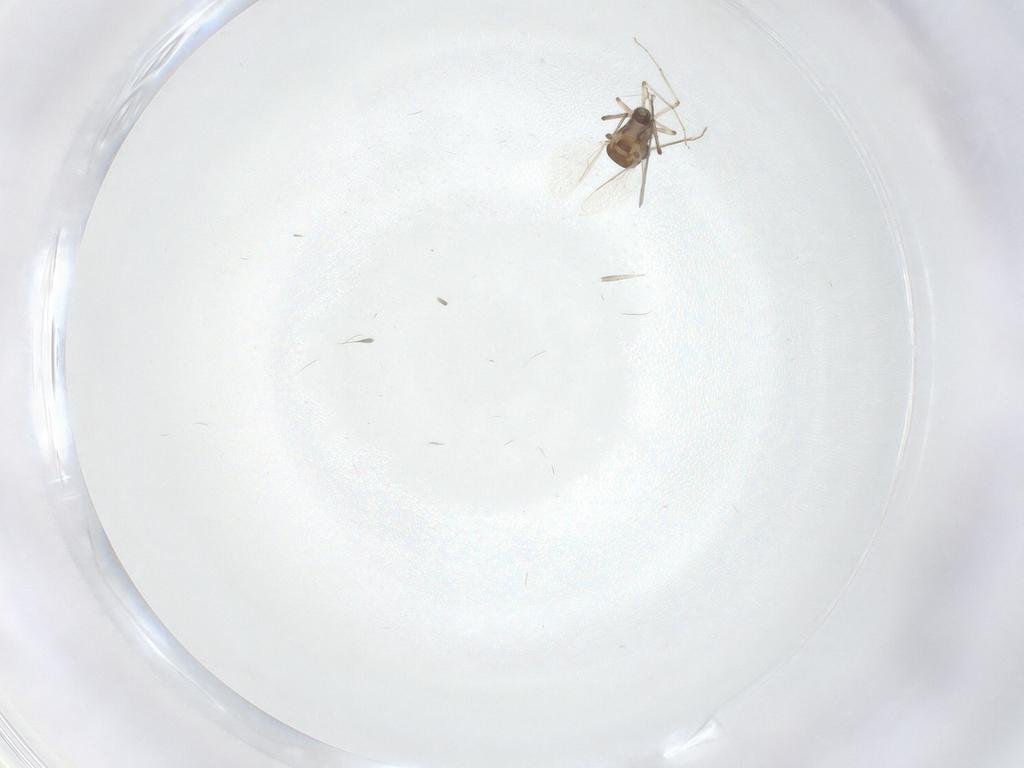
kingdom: Animalia
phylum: Arthropoda
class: Insecta
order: Diptera
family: Ceratopogonidae
